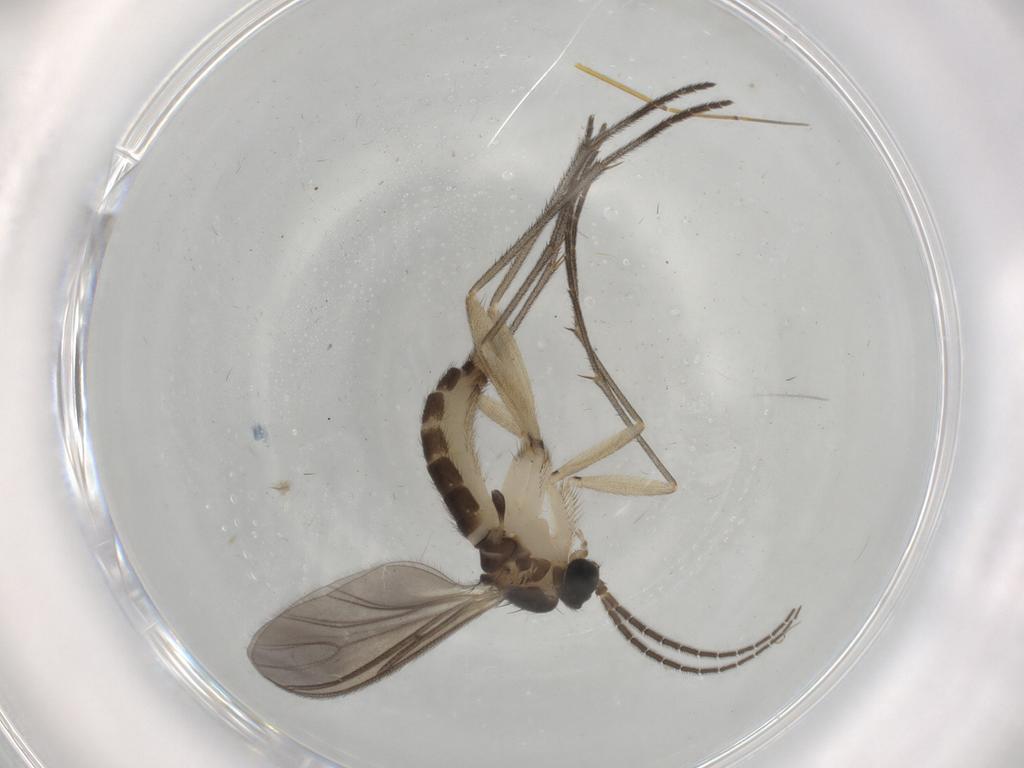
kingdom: Animalia
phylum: Arthropoda
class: Insecta
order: Diptera
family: Sciaridae
